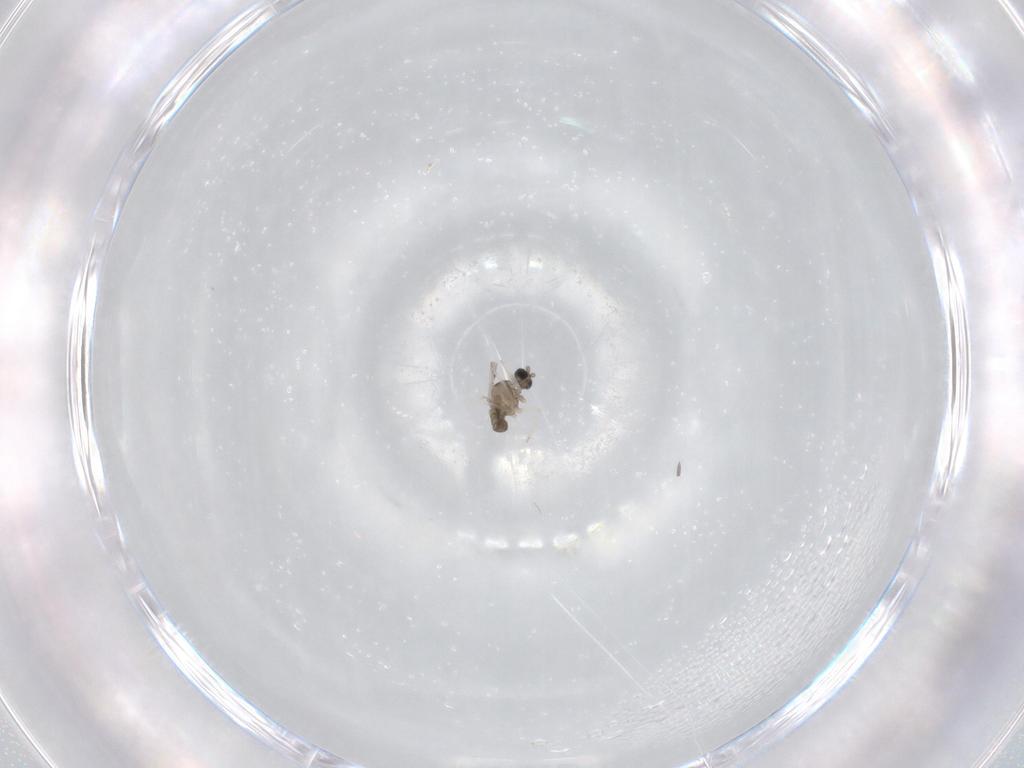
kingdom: Animalia
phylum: Arthropoda
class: Insecta
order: Diptera
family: Cecidomyiidae
